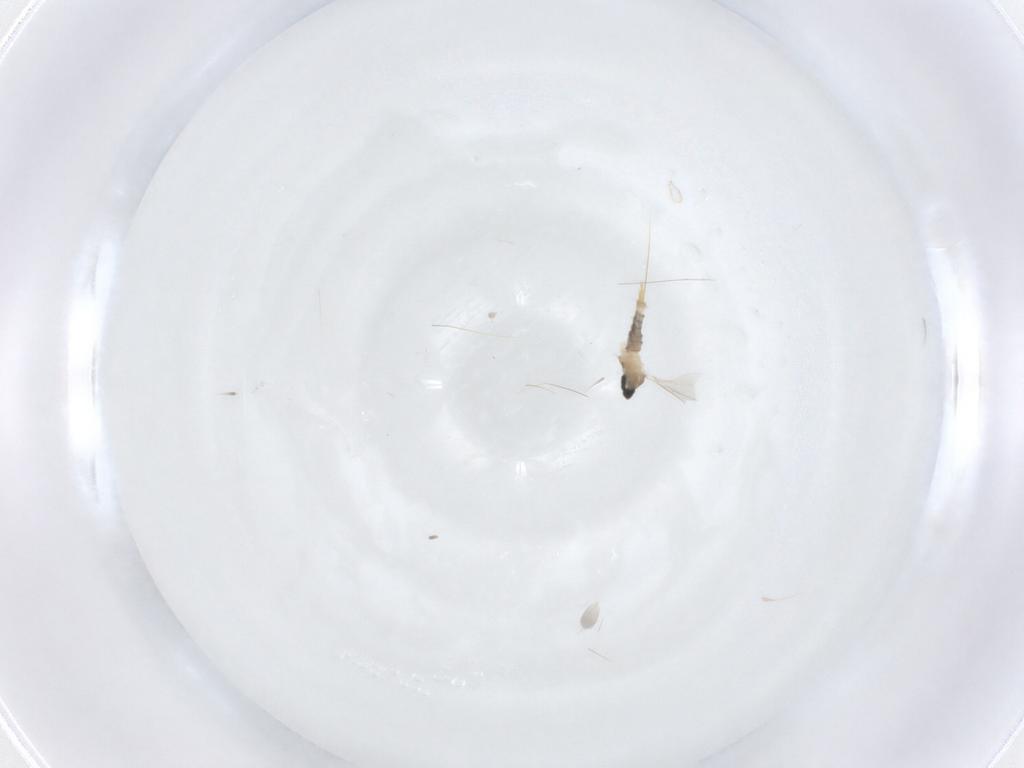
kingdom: Animalia
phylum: Arthropoda
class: Insecta
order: Diptera
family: Cecidomyiidae
